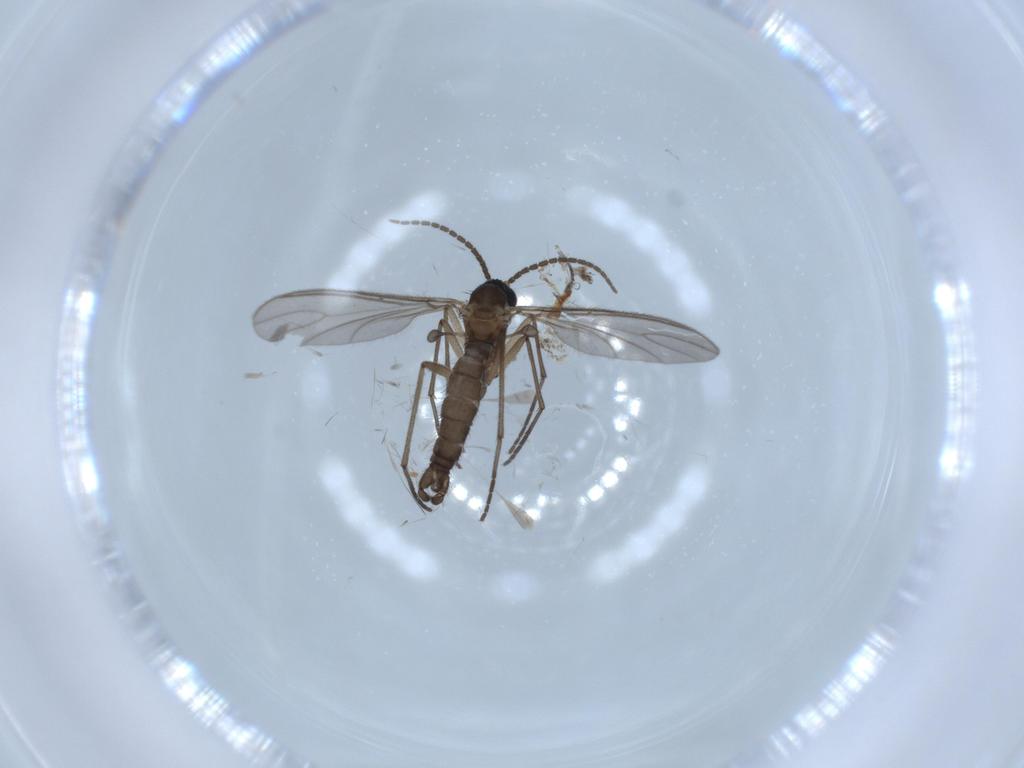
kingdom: Animalia
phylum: Arthropoda
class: Insecta
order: Diptera
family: Sciaridae
